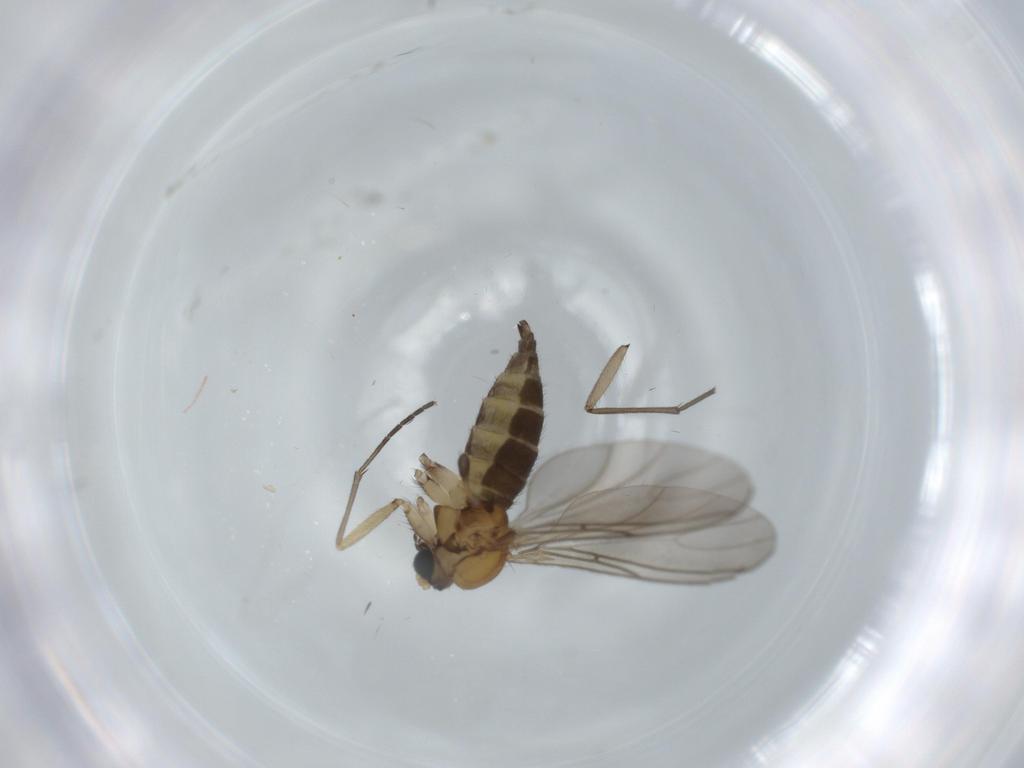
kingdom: Animalia
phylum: Arthropoda
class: Insecta
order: Diptera
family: Sciaridae
